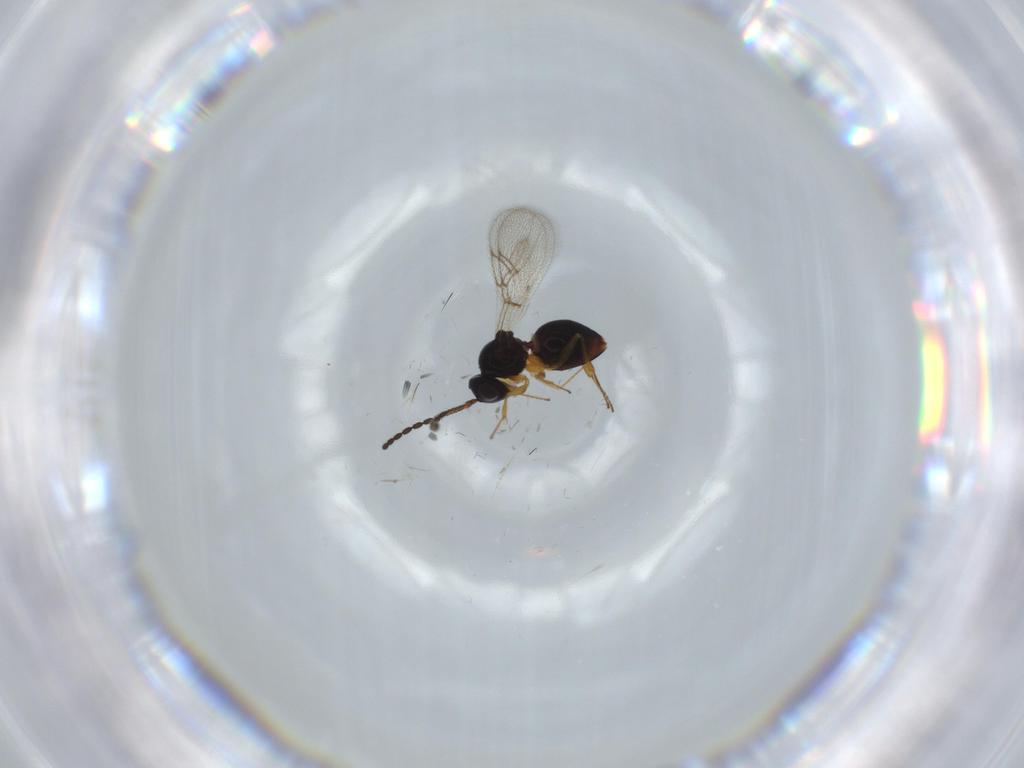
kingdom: Animalia
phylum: Arthropoda
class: Insecta
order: Hymenoptera
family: Figitidae
